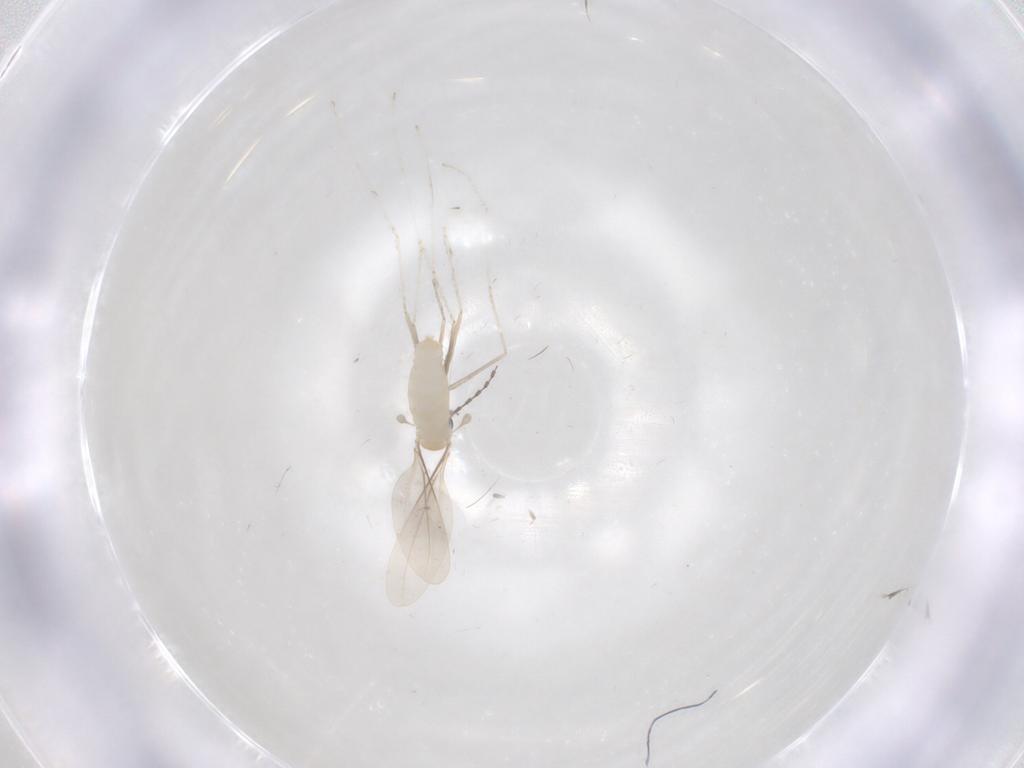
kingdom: Animalia
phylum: Arthropoda
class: Insecta
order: Diptera
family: Cecidomyiidae
